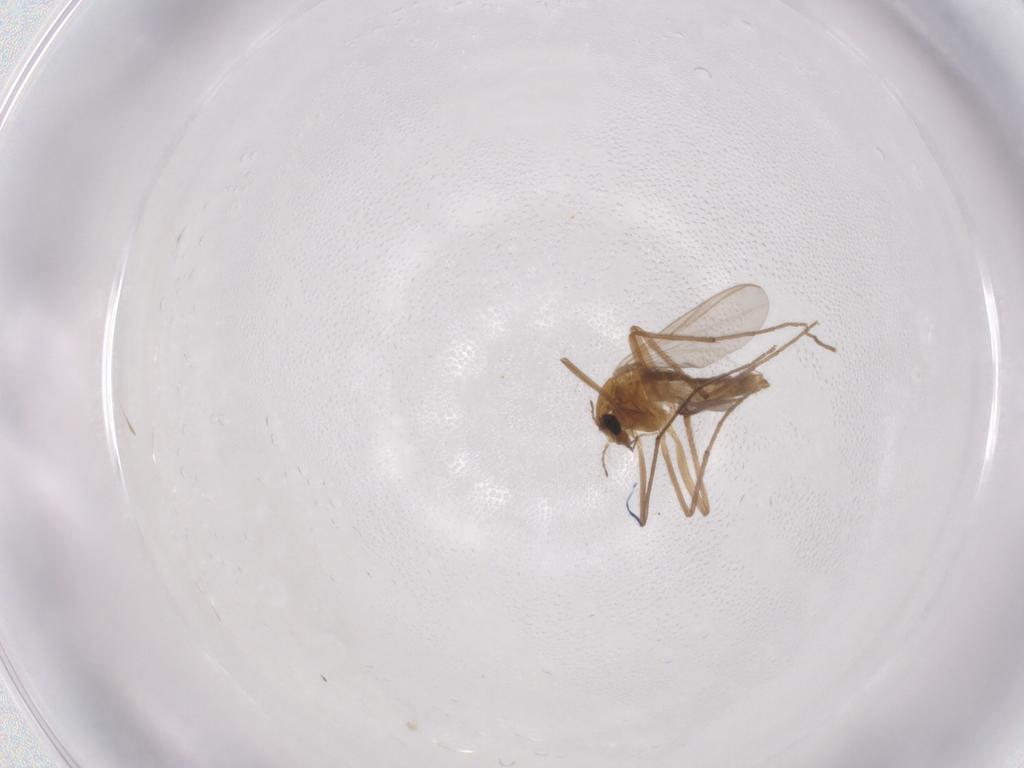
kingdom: Animalia
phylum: Arthropoda
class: Insecta
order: Diptera
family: Chironomidae
